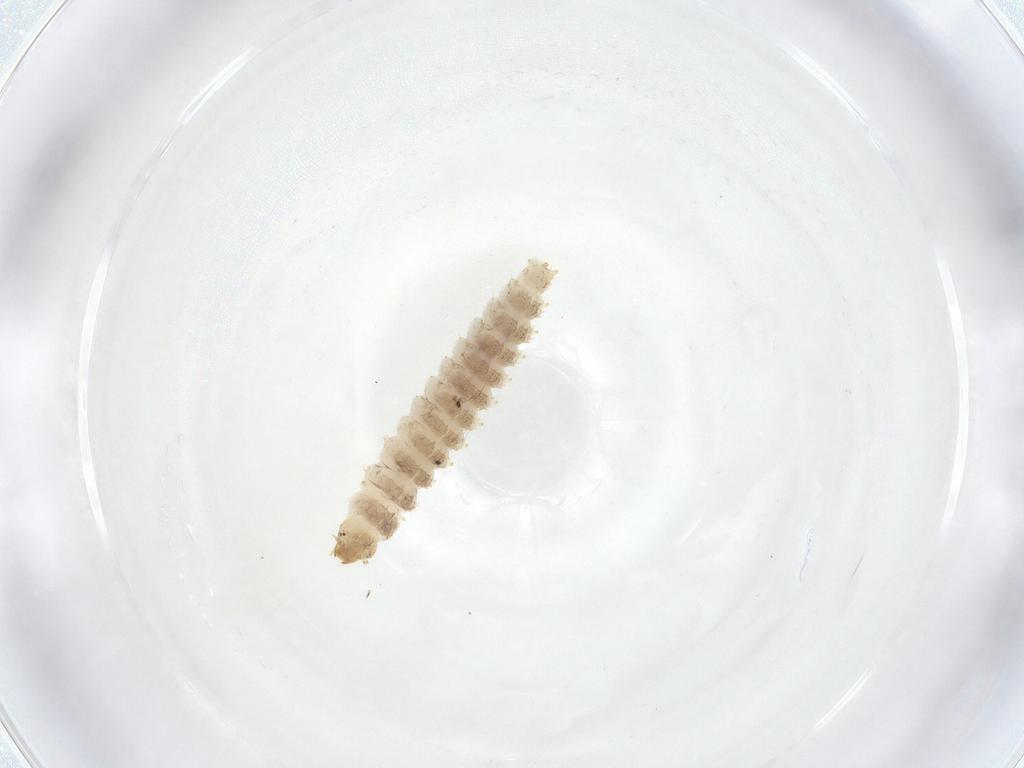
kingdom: Animalia
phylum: Arthropoda
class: Insecta
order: Coleoptera
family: Nitidulidae
